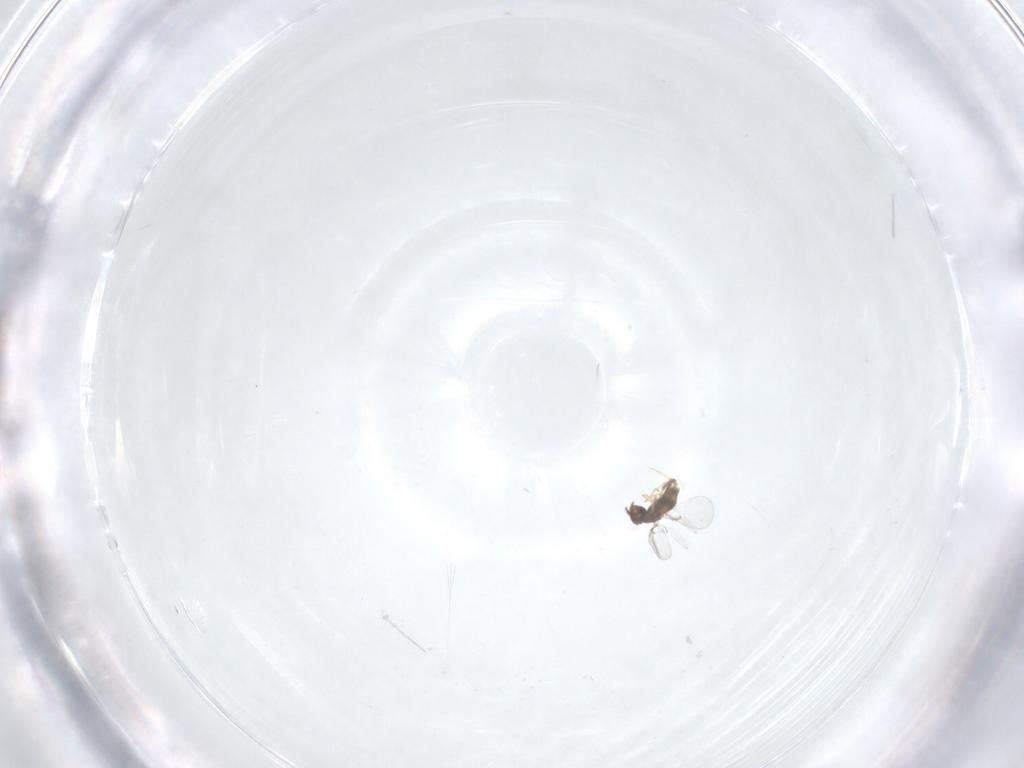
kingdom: Animalia
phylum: Arthropoda
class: Insecta
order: Hymenoptera
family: Trichogrammatidae
